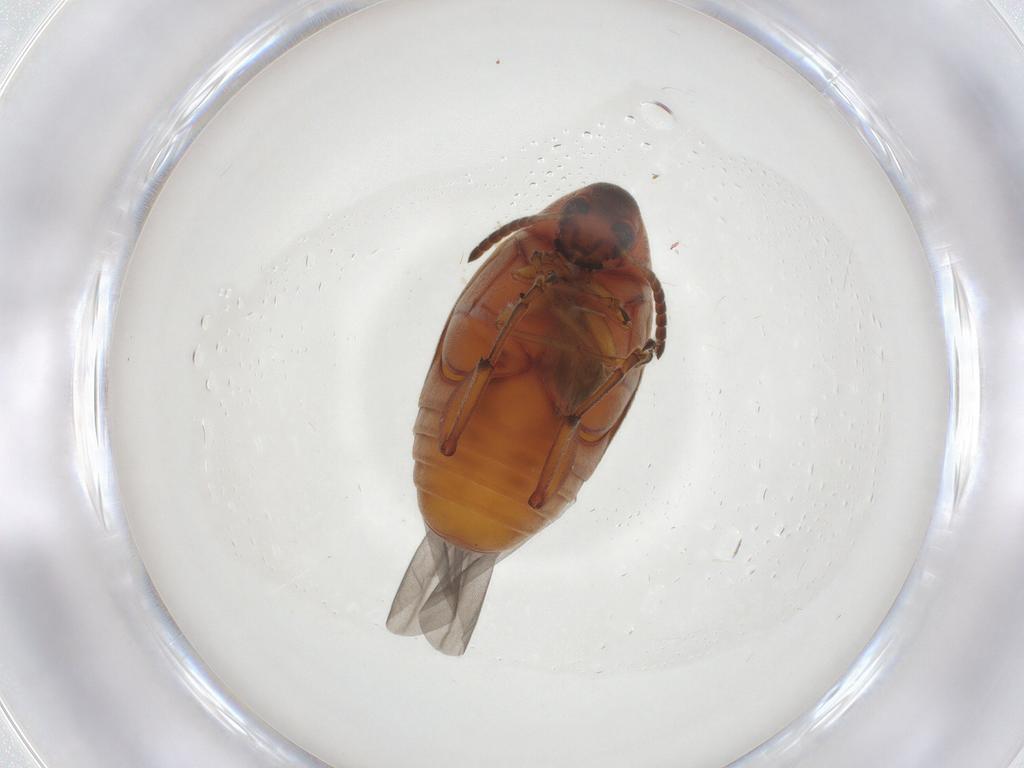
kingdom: Animalia
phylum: Arthropoda
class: Insecta
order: Coleoptera
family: Chrysomelidae
